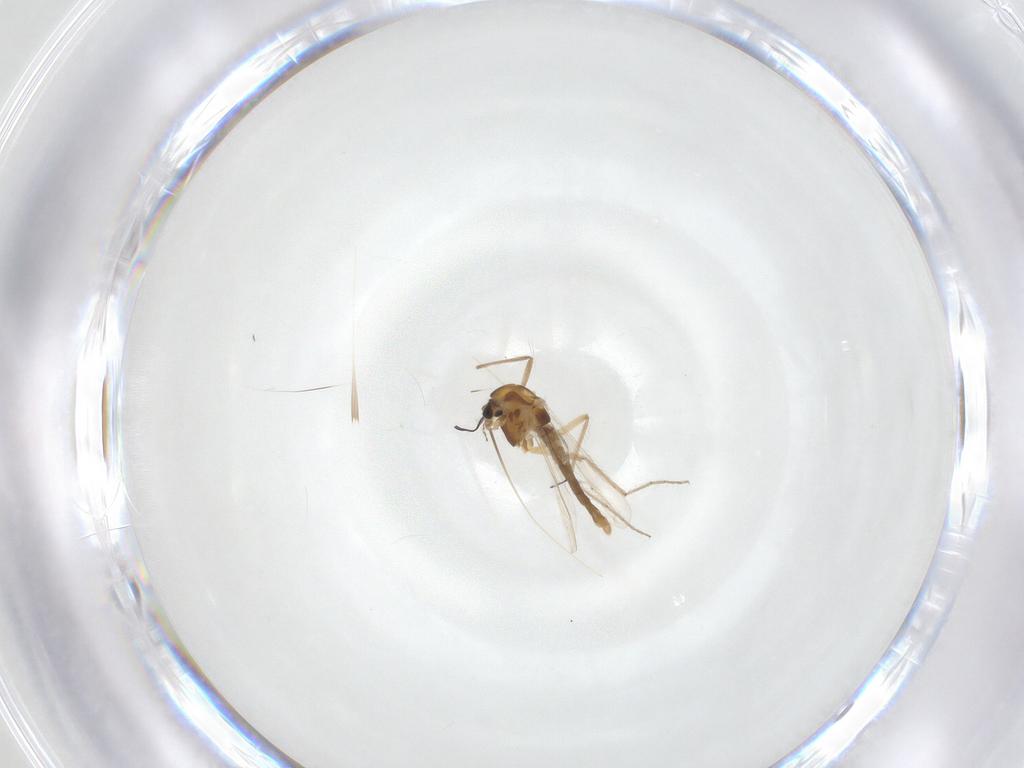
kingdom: Animalia
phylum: Arthropoda
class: Insecta
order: Diptera
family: Chironomidae
